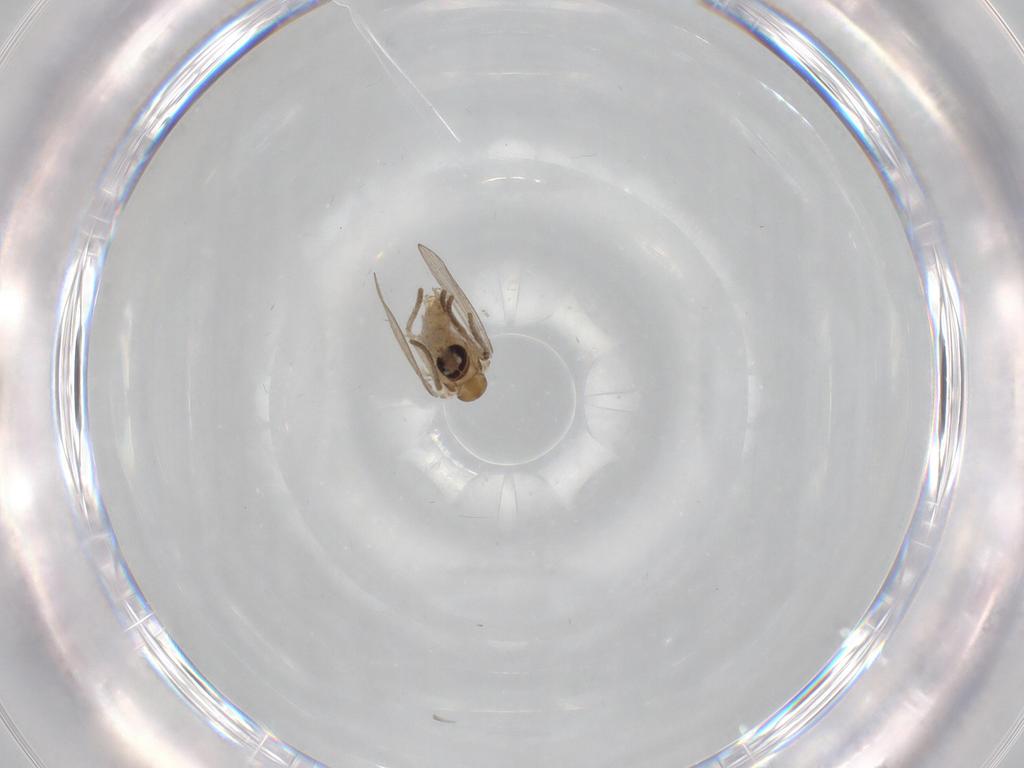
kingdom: Animalia
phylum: Arthropoda
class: Insecta
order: Diptera
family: Psychodidae
